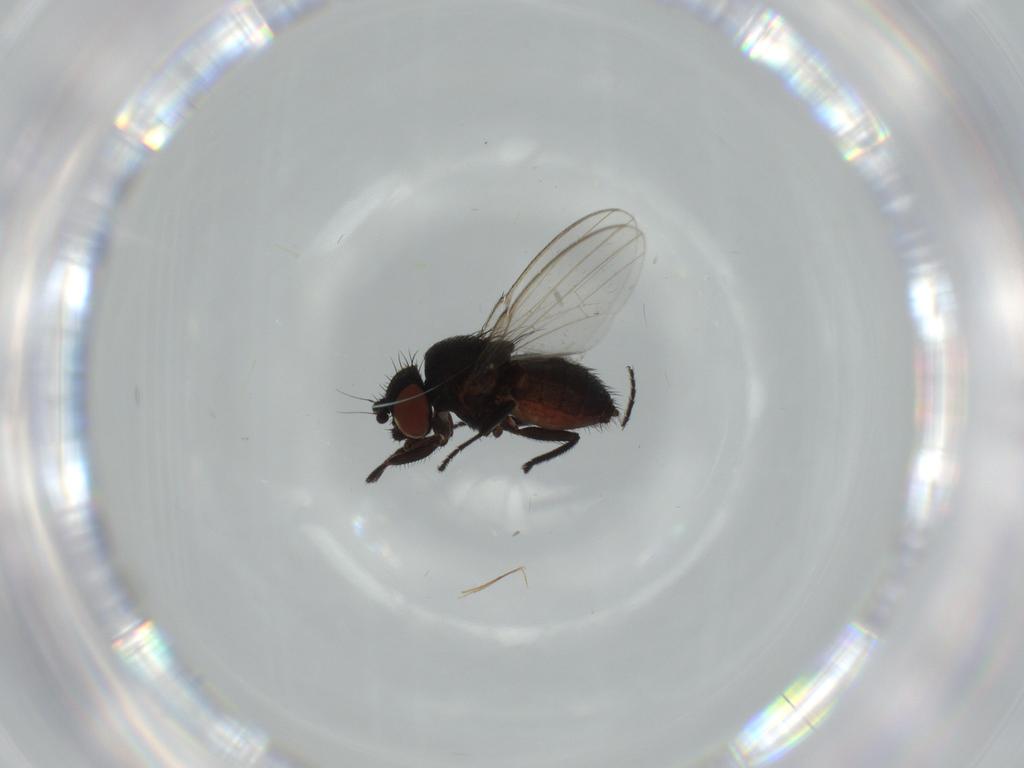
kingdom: Animalia
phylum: Arthropoda
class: Insecta
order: Diptera
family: Milichiidae
